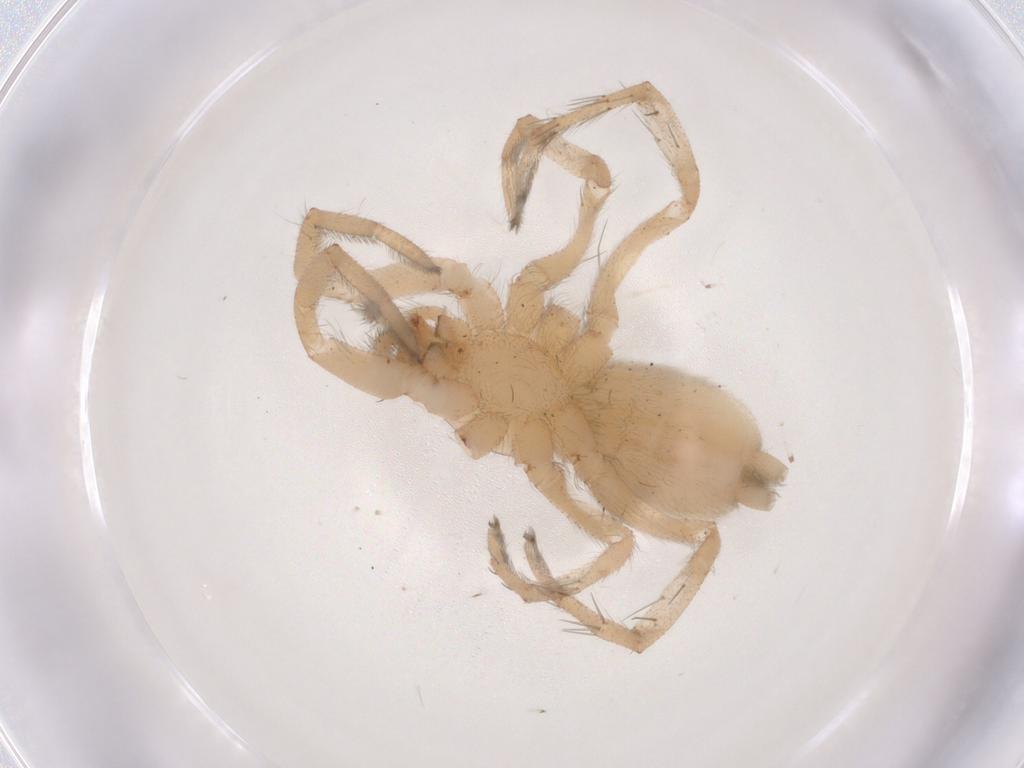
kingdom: Animalia
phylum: Arthropoda
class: Arachnida
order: Araneae
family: Gnaphosidae
